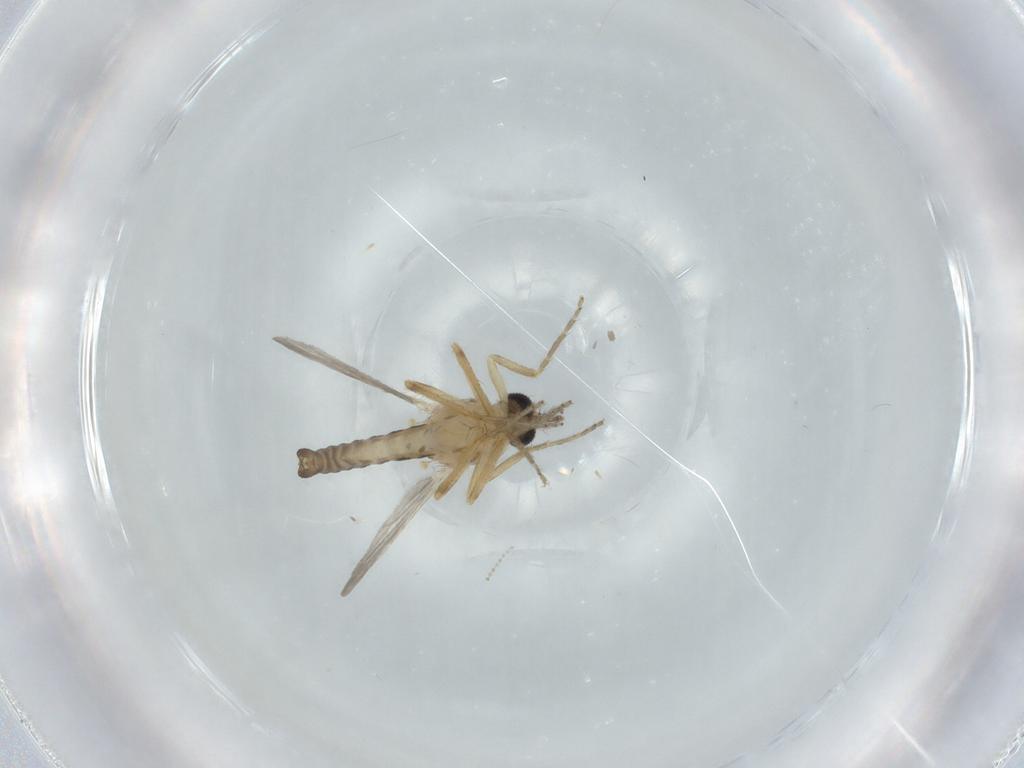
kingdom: Animalia
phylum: Arthropoda
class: Insecta
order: Diptera
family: Ceratopogonidae
